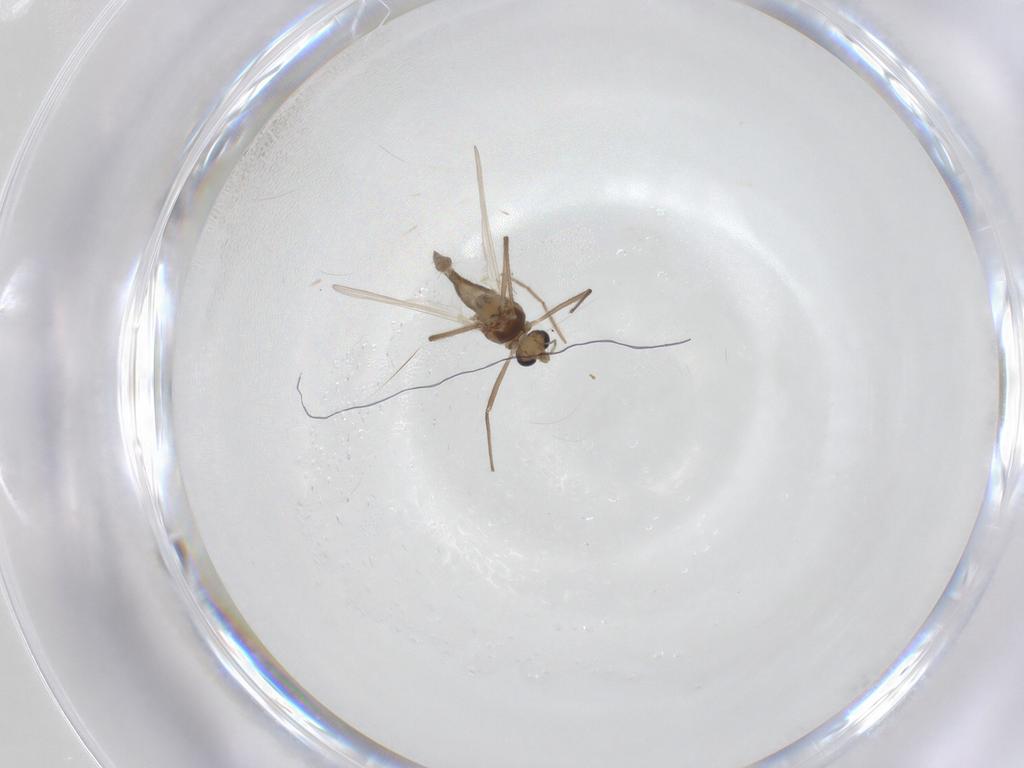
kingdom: Animalia
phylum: Arthropoda
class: Insecta
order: Diptera
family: Chironomidae
